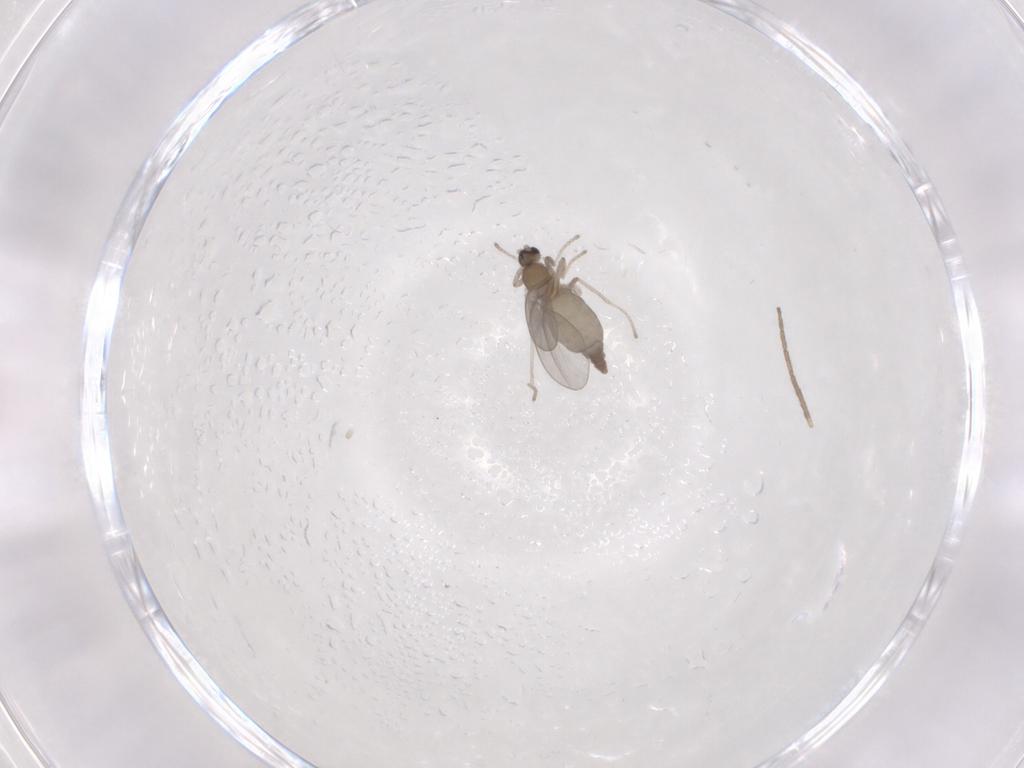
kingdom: Animalia
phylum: Arthropoda
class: Insecta
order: Diptera
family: Cecidomyiidae
